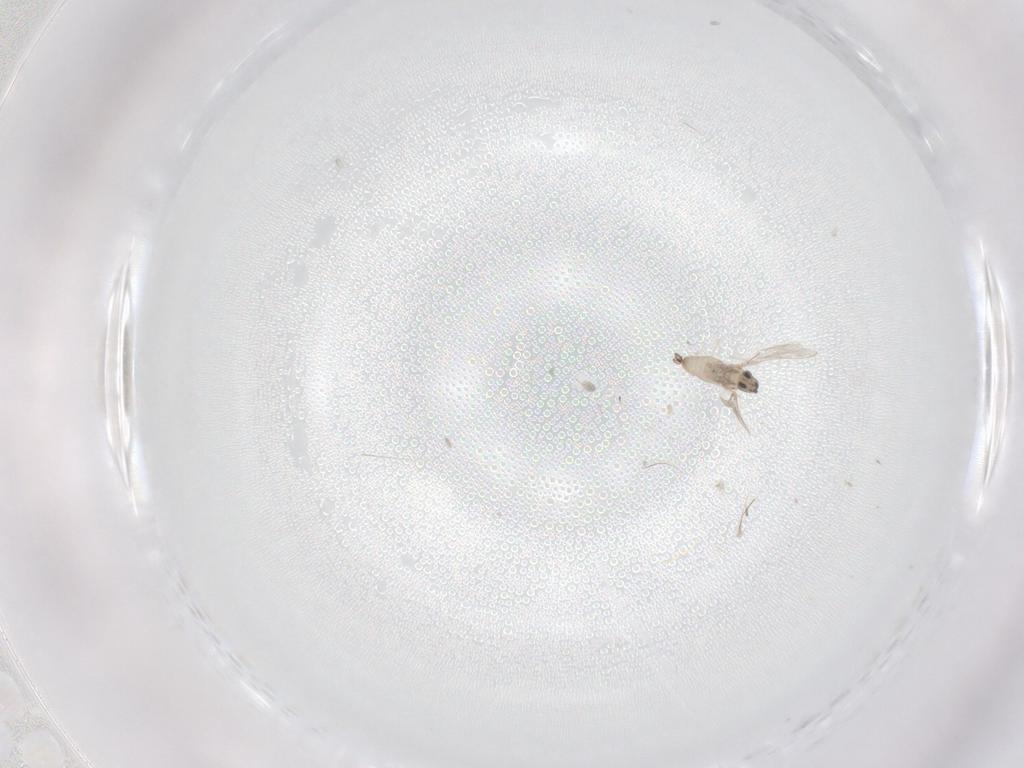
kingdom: Animalia
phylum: Arthropoda
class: Insecta
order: Diptera
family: Cecidomyiidae
